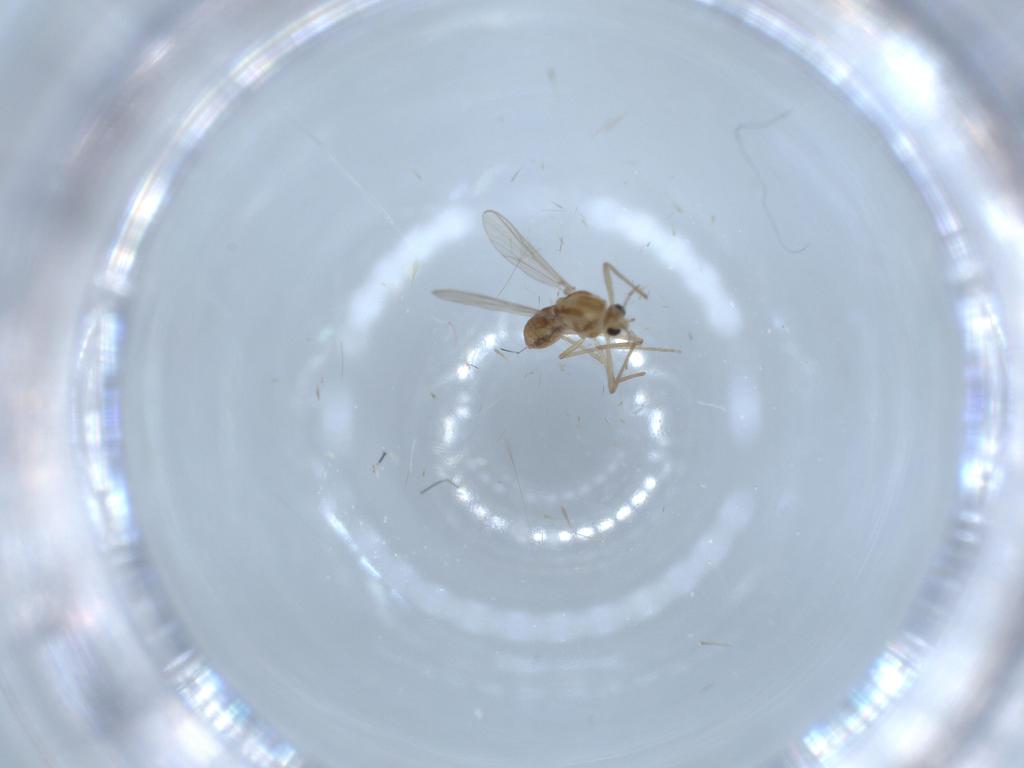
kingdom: Animalia
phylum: Arthropoda
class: Insecta
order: Diptera
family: Chironomidae
